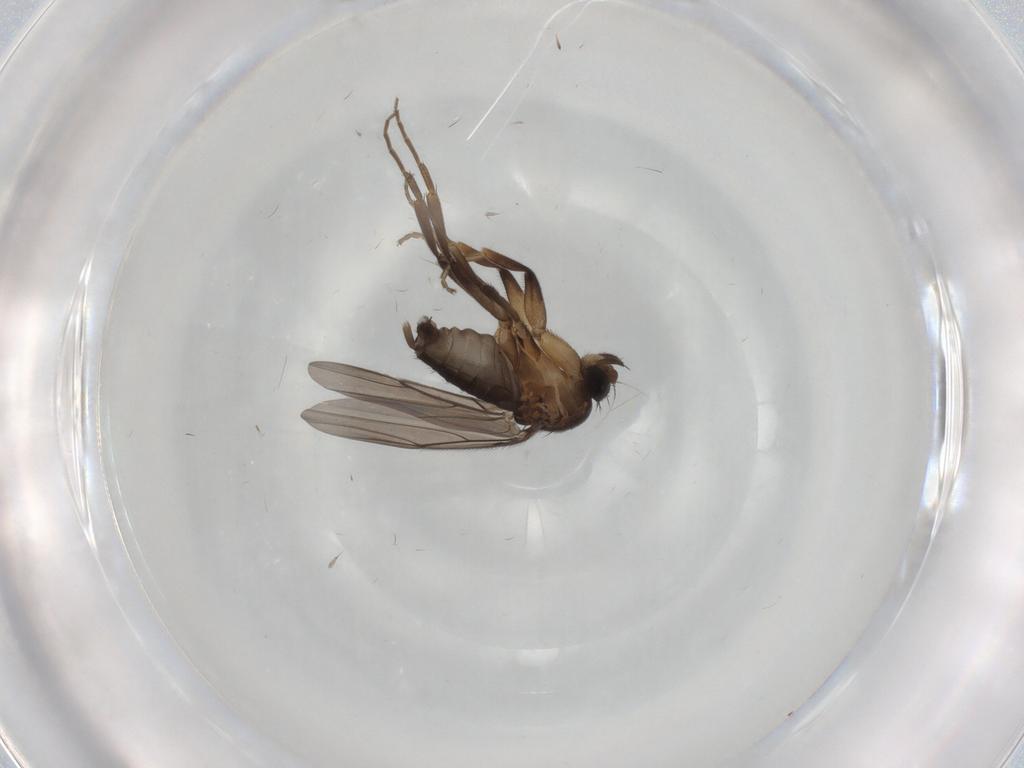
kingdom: Animalia
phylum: Arthropoda
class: Insecta
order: Diptera
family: Phoridae
